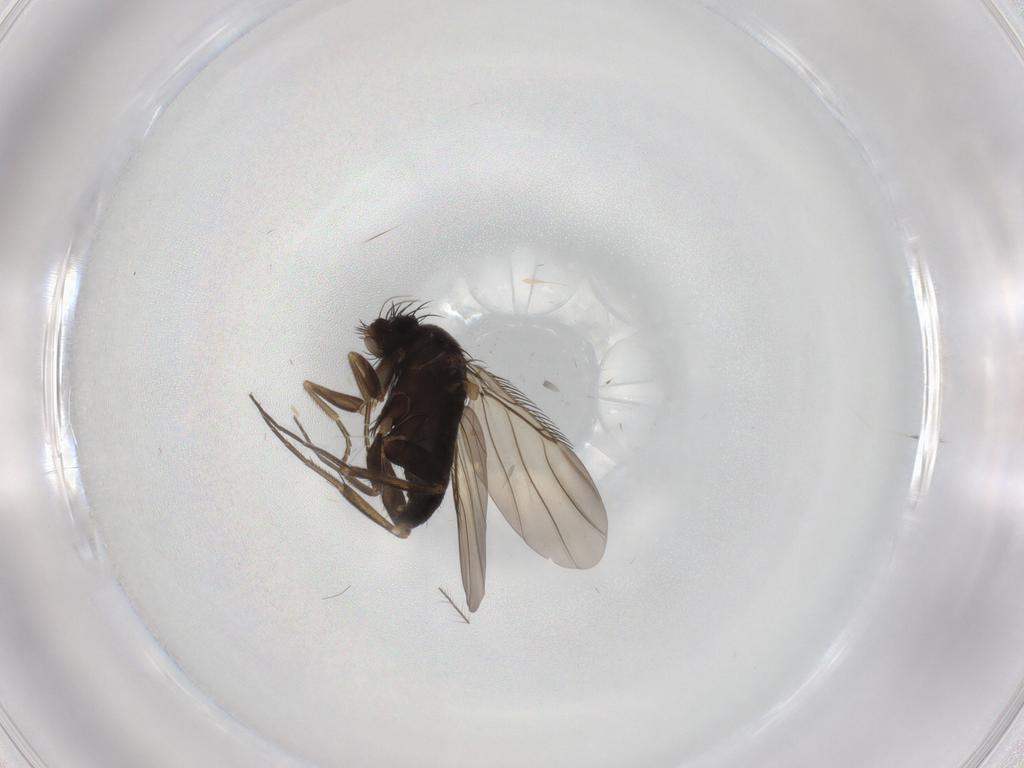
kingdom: Animalia
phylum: Arthropoda
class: Insecta
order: Diptera
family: Phoridae
